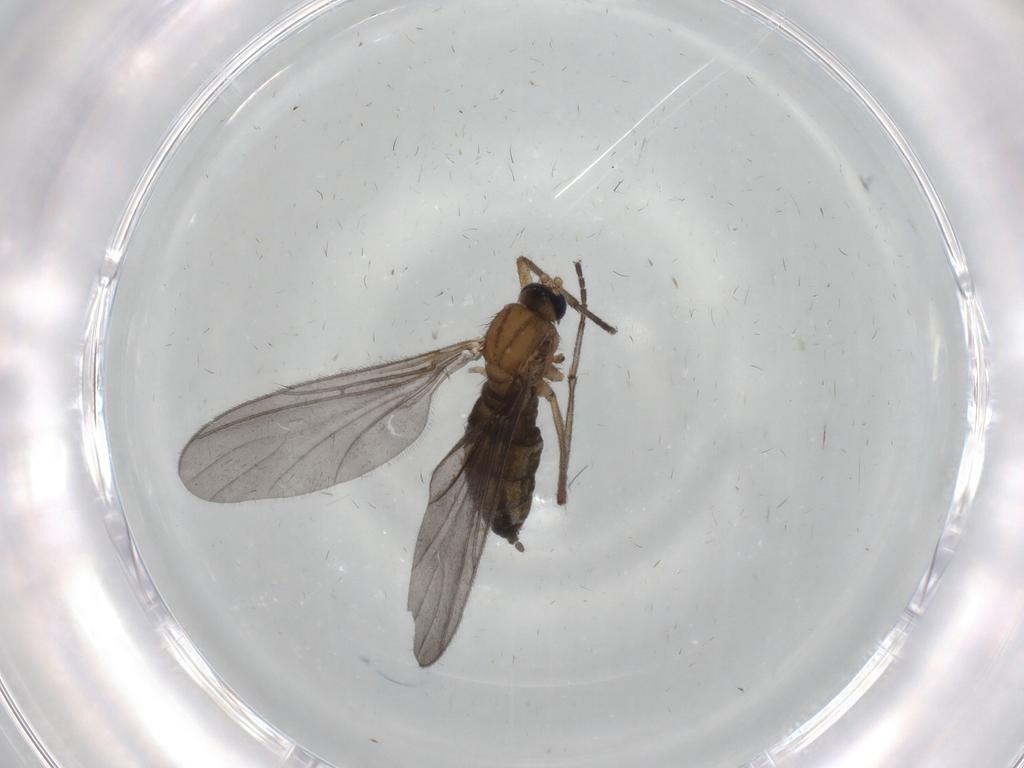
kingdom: Animalia
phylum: Arthropoda
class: Insecta
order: Diptera
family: Sciaridae
